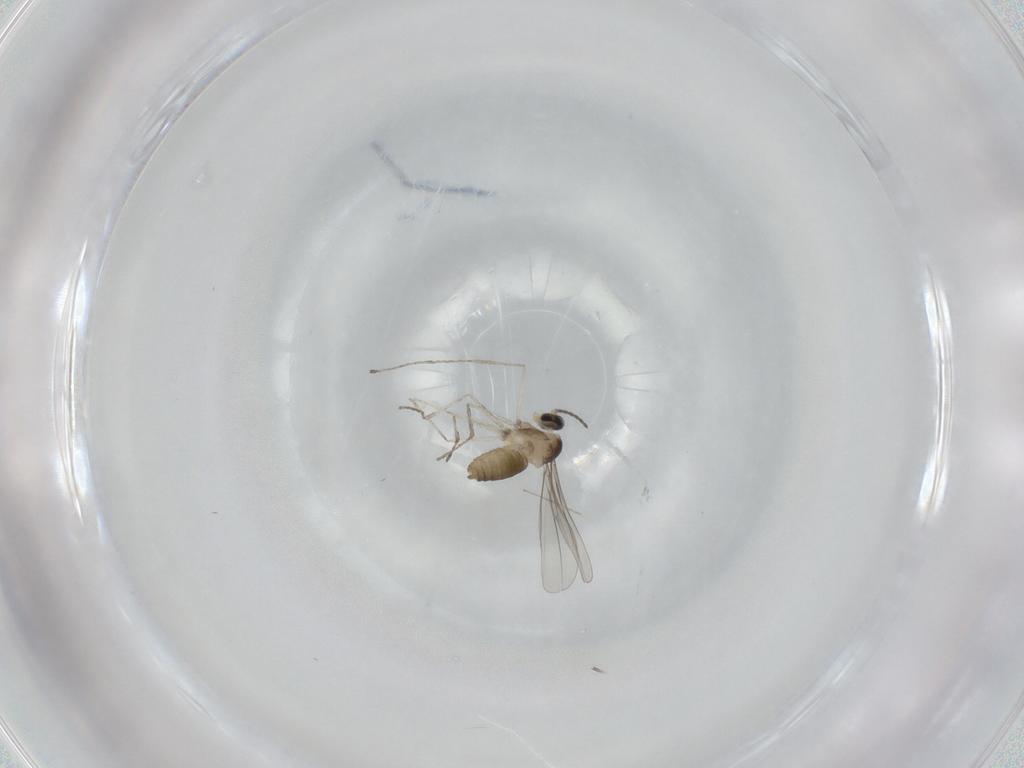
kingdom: Animalia
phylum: Arthropoda
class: Insecta
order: Diptera
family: Cecidomyiidae
